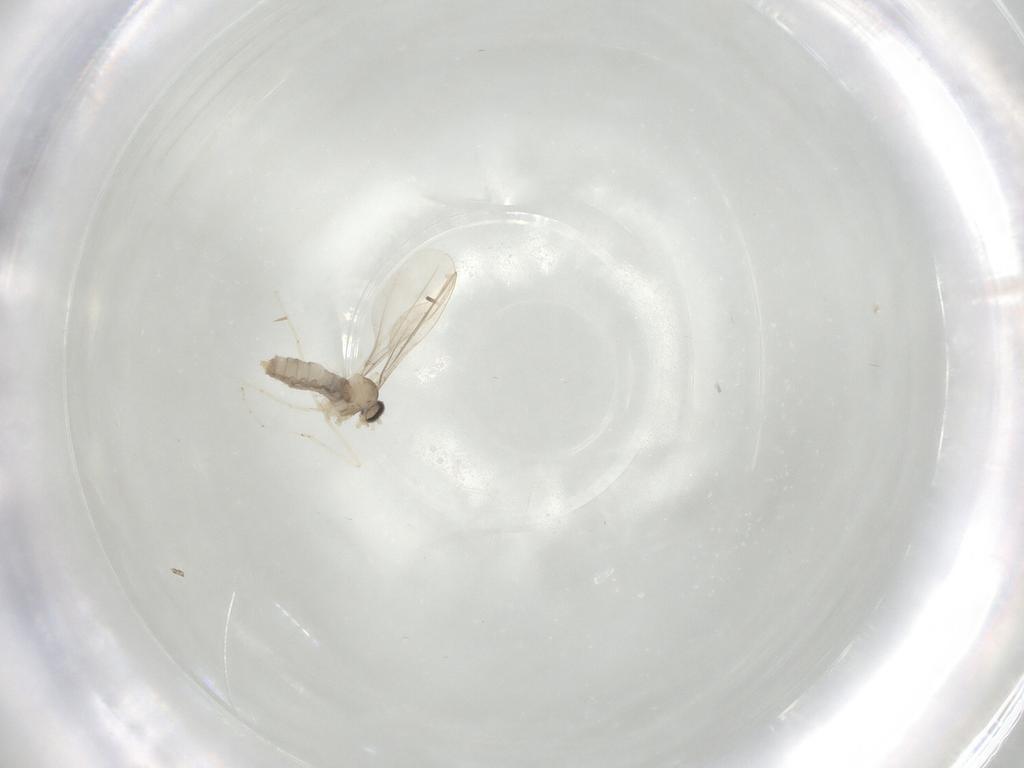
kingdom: Animalia
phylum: Arthropoda
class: Insecta
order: Diptera
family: Cecidomyiidae
